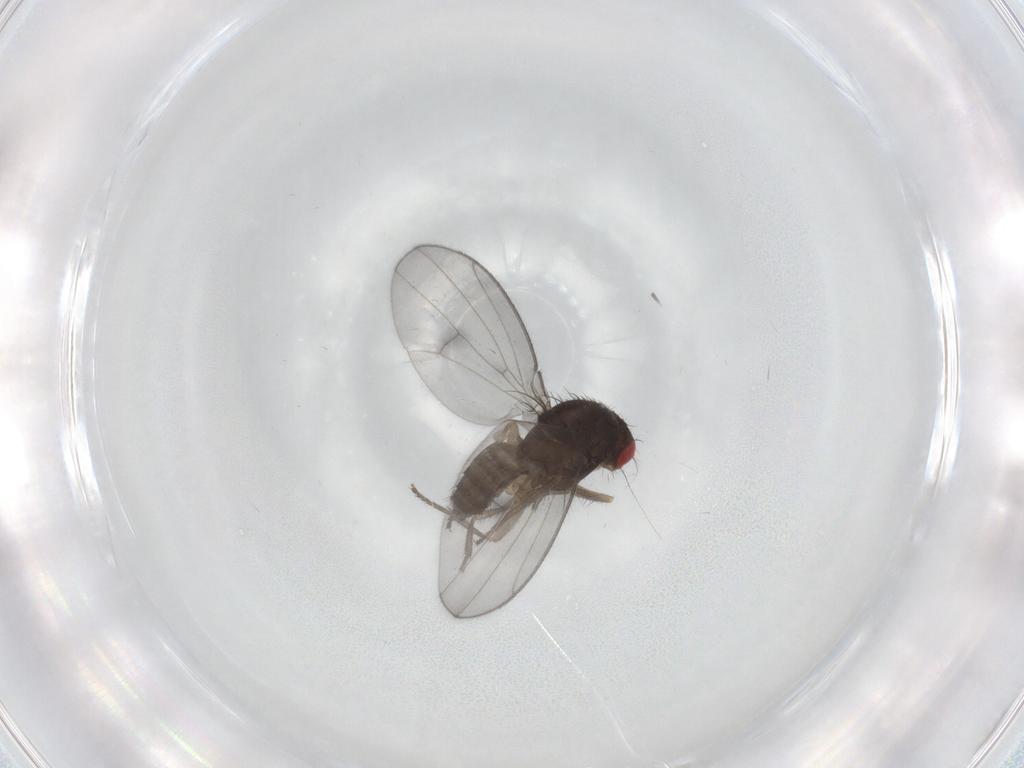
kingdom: Animalia
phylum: Arthropoda
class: Insecta
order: Diptera
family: Drosophilidae
